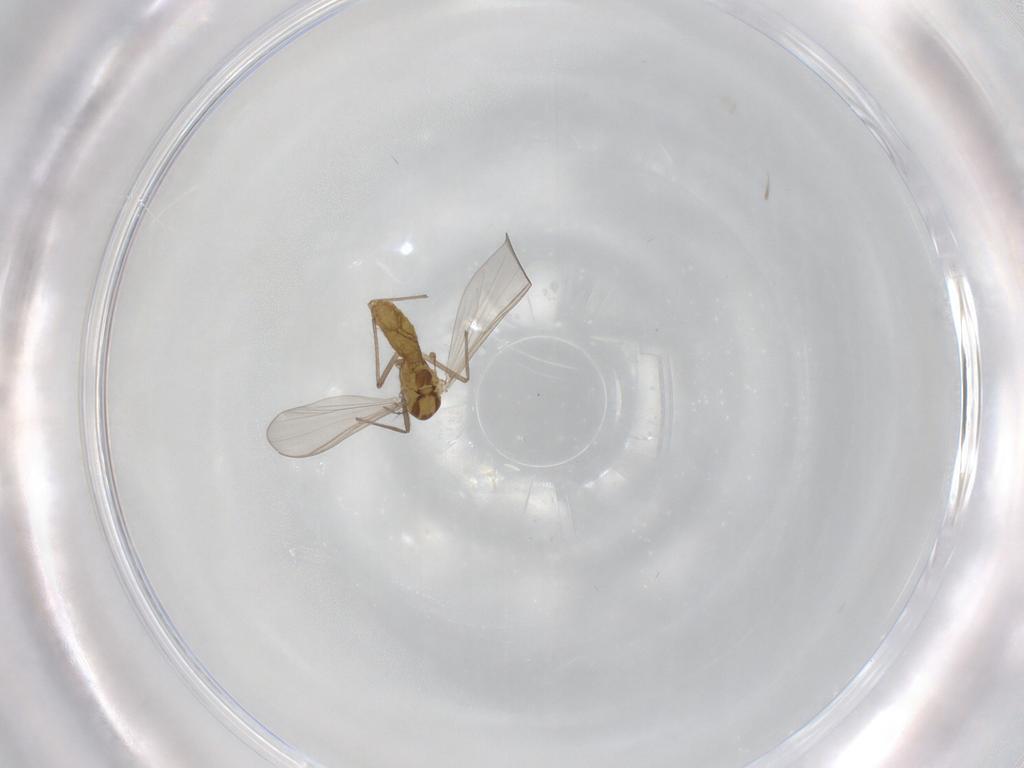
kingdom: Animalia
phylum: Arthropoda
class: Insecta
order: Diptera
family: Chironomidae
